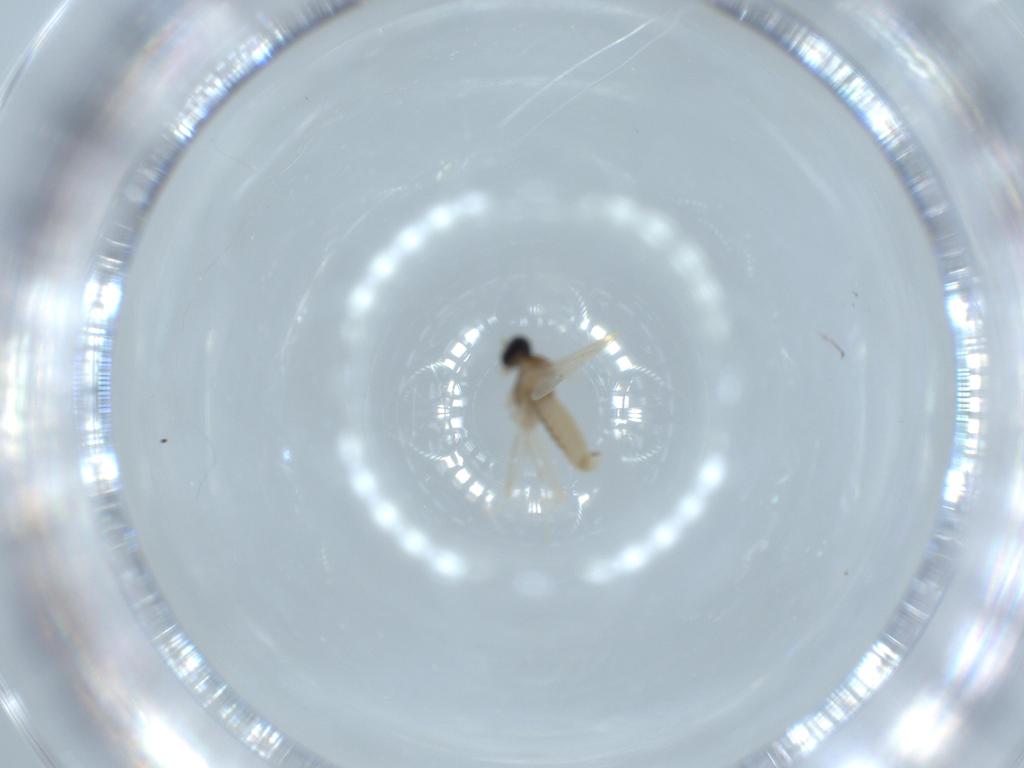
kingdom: Animalia
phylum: Arthropoda
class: Insecta
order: Diptera
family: Cecidomyiidae
